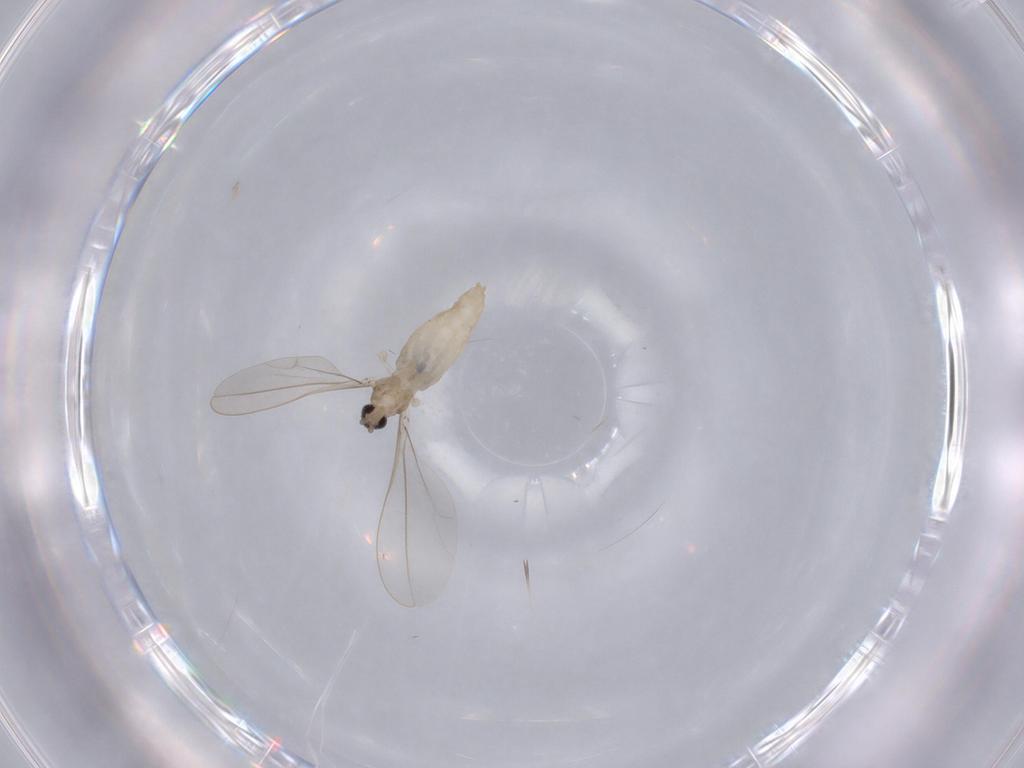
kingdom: Animalia
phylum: Arthropoda
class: Insecta
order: Diptera
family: Cecidomyiidae
